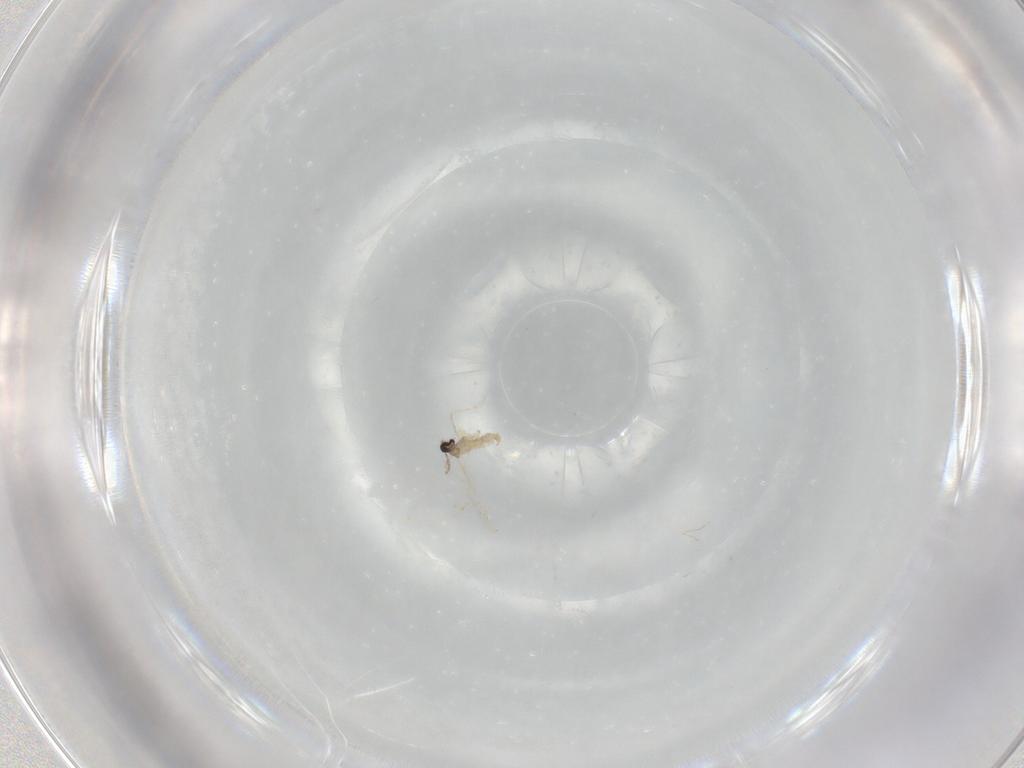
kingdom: Animalia
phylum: Arthropoda
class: Insecta
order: Diptera
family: Cecidomyiidae
